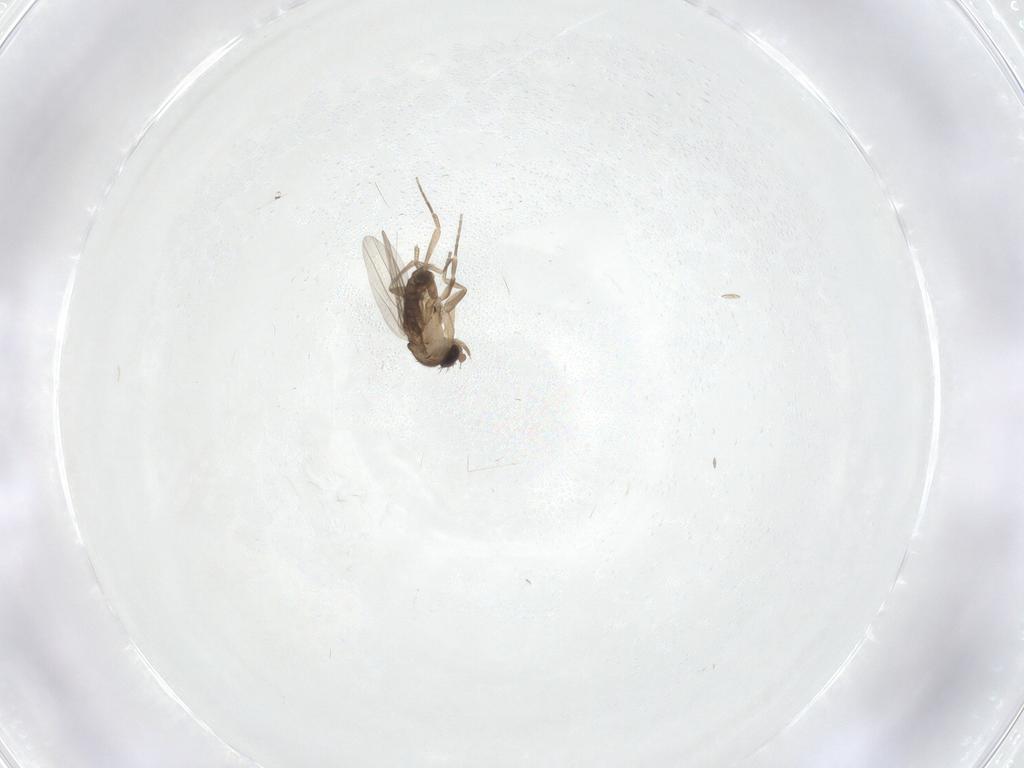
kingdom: Animalia
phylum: Arthropoda
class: Insecta
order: Diptera
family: Phoridae
